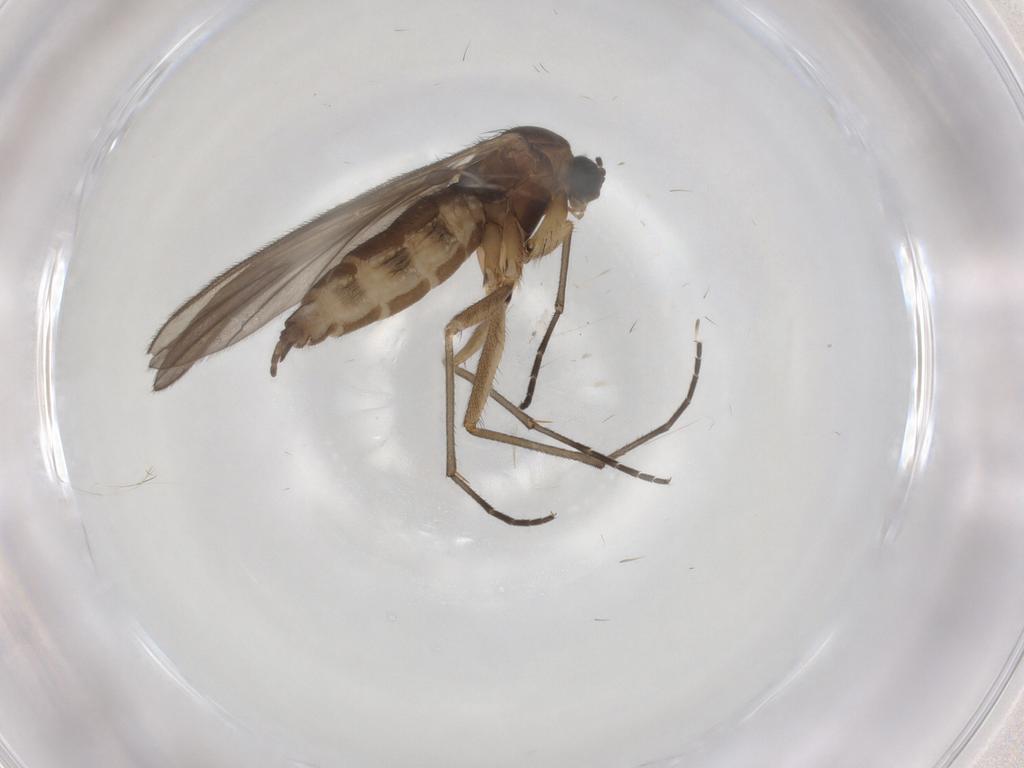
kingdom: Animalia
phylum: Arthropoda
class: Insecta
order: Diptera
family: Sciaridae
